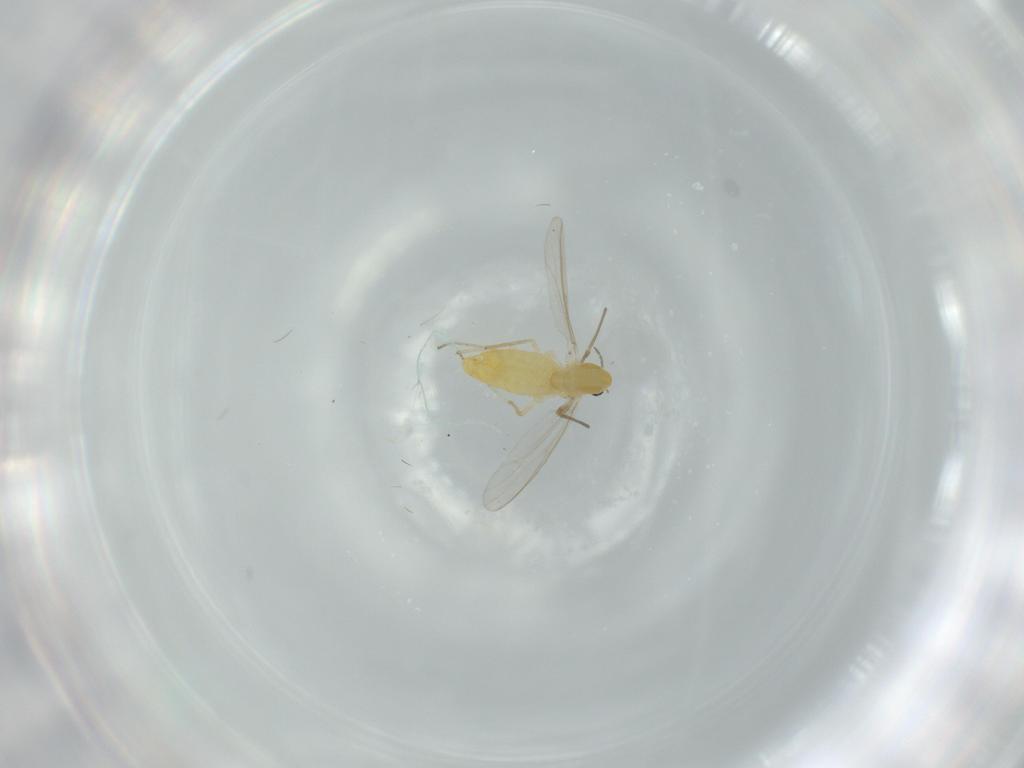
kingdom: Animalia
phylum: Arthropoda
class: Insecta
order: Diptera
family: Chironomidae
